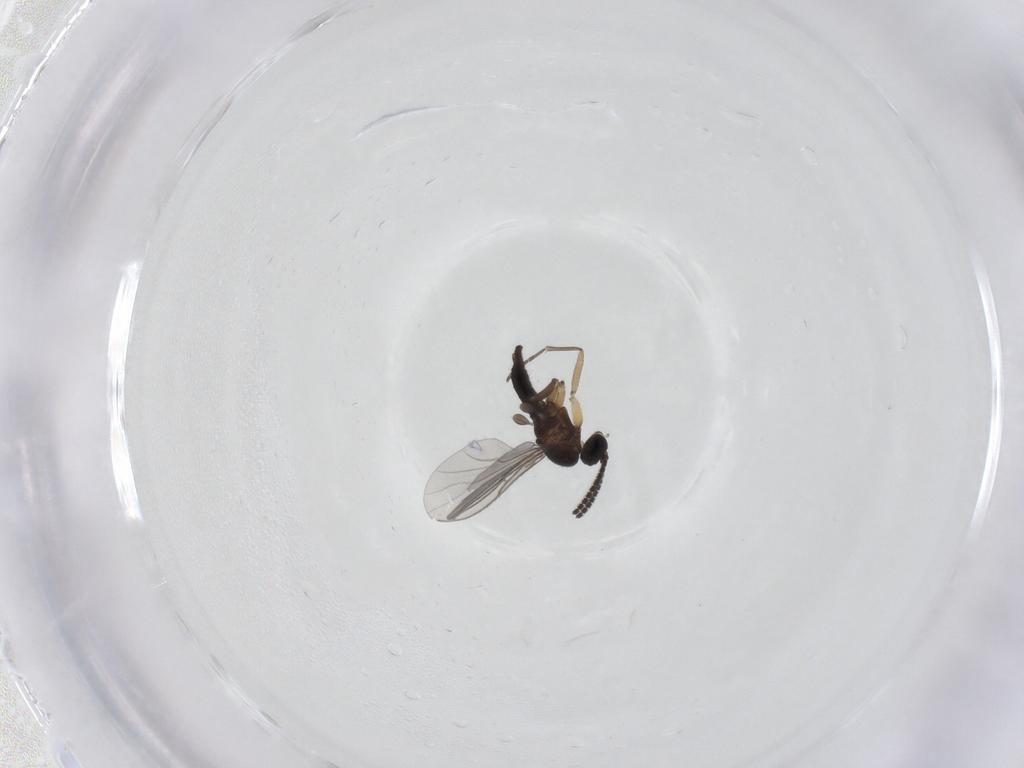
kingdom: Animalia
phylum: Arthropoda
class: Insecta
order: Diptera
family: Sciaridae
